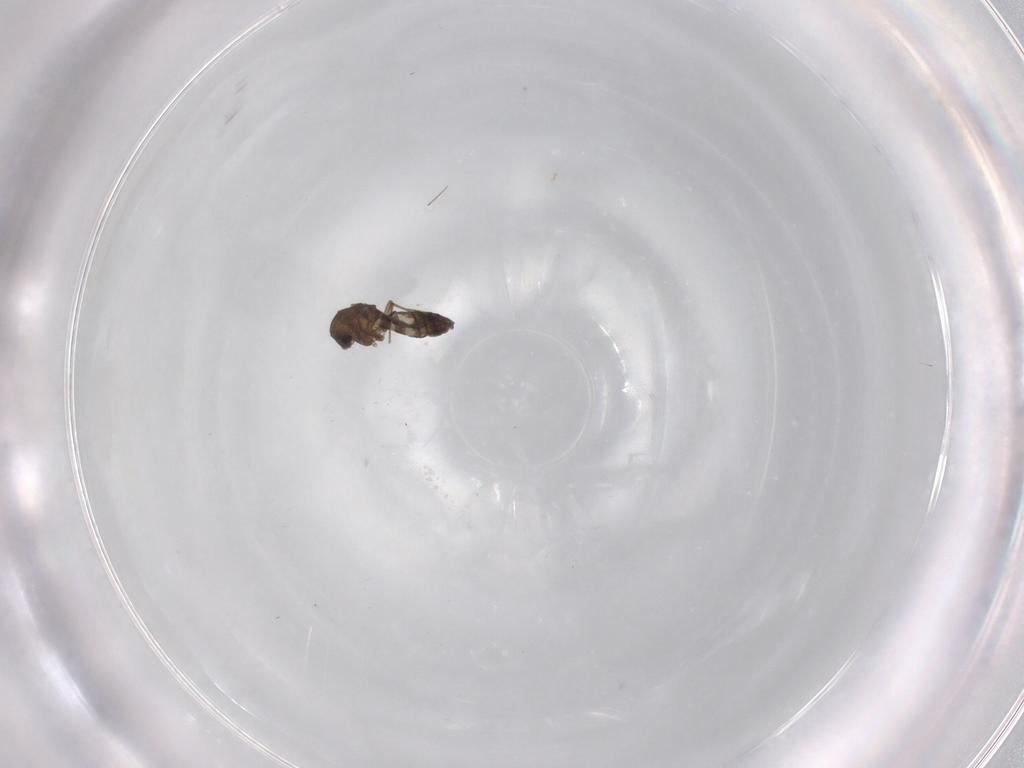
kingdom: Animalia
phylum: Arthropoda
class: Insecta
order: Diptera
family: Chironomidae
